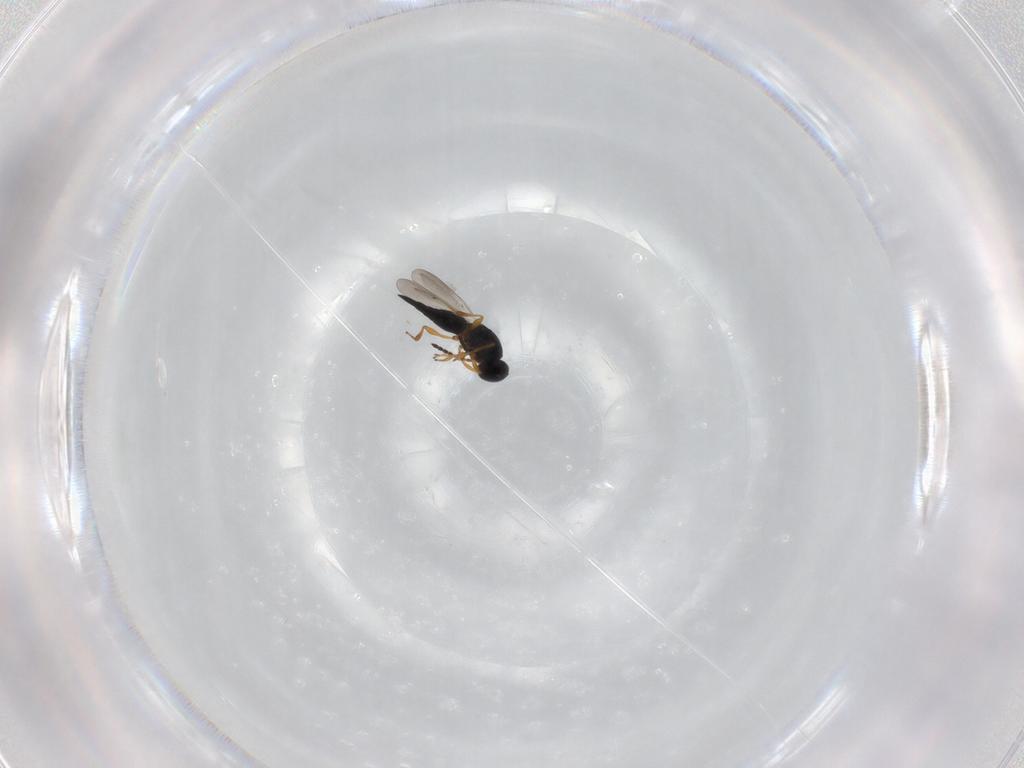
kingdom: Animalia
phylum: Arthropoda
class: Insecta
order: Hymenoptera
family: Platygastridae
